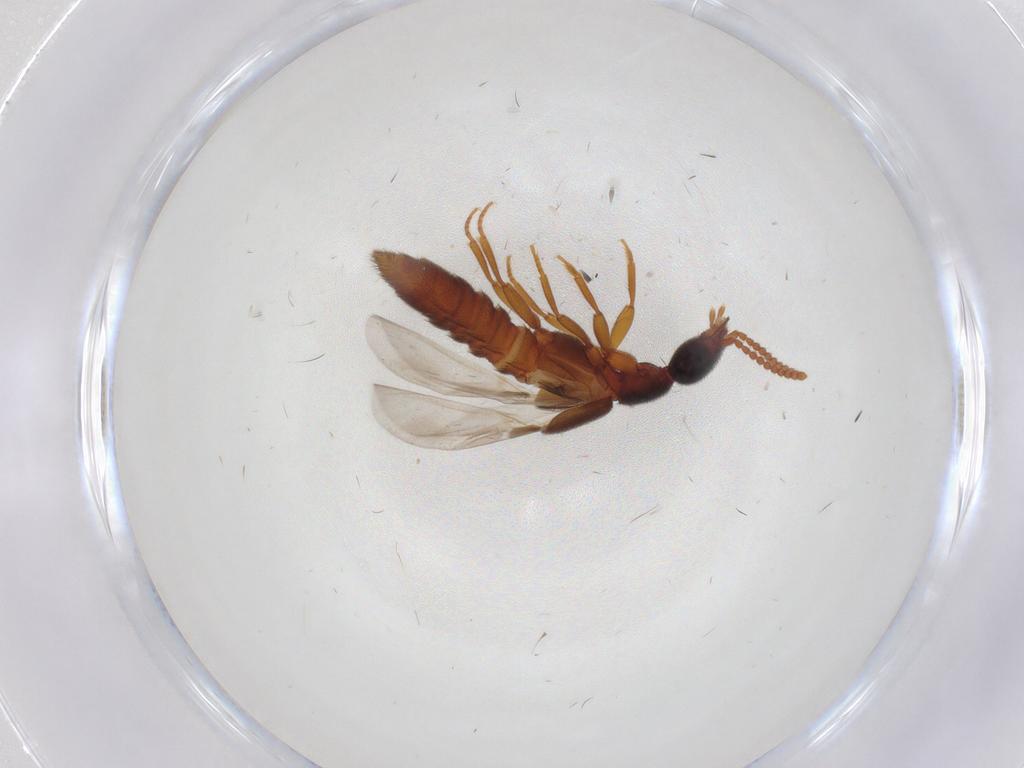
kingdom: Animalia
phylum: Arthropoda
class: Insecta
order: Coleoptera
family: Staphylinidae
